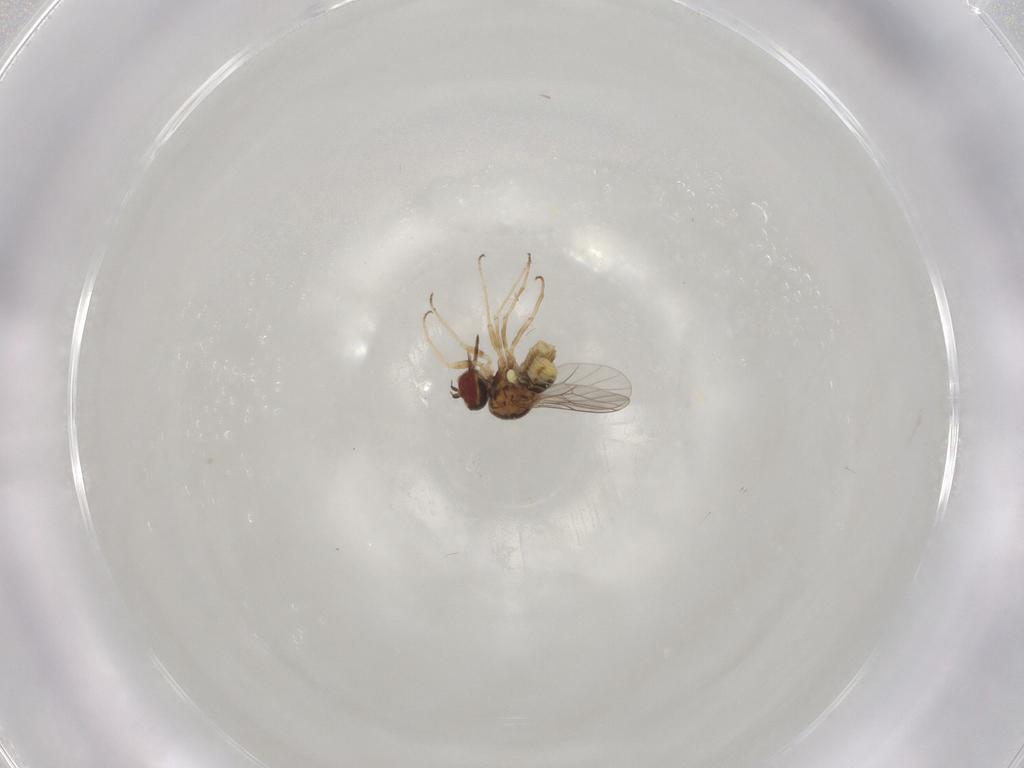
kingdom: Animalia
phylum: Arthropoda
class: Insecta
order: Diptera
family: Mythicomyiidae
